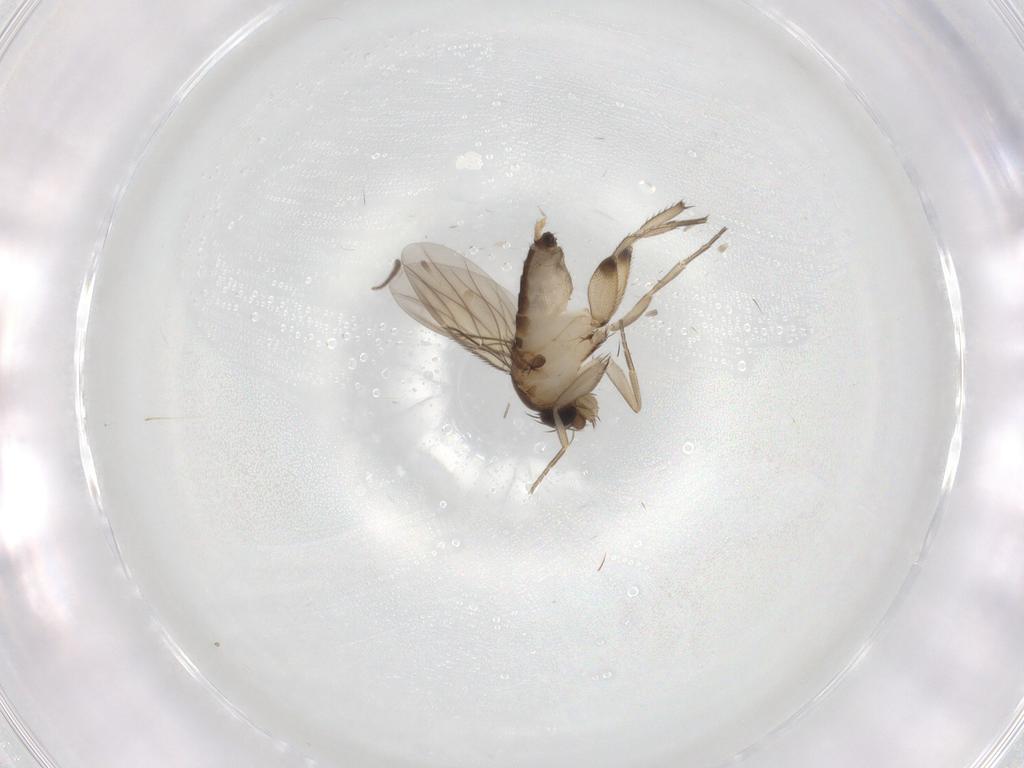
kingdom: Animalia
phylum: Arthropoda
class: Insecta
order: Diptera
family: Phoridae
